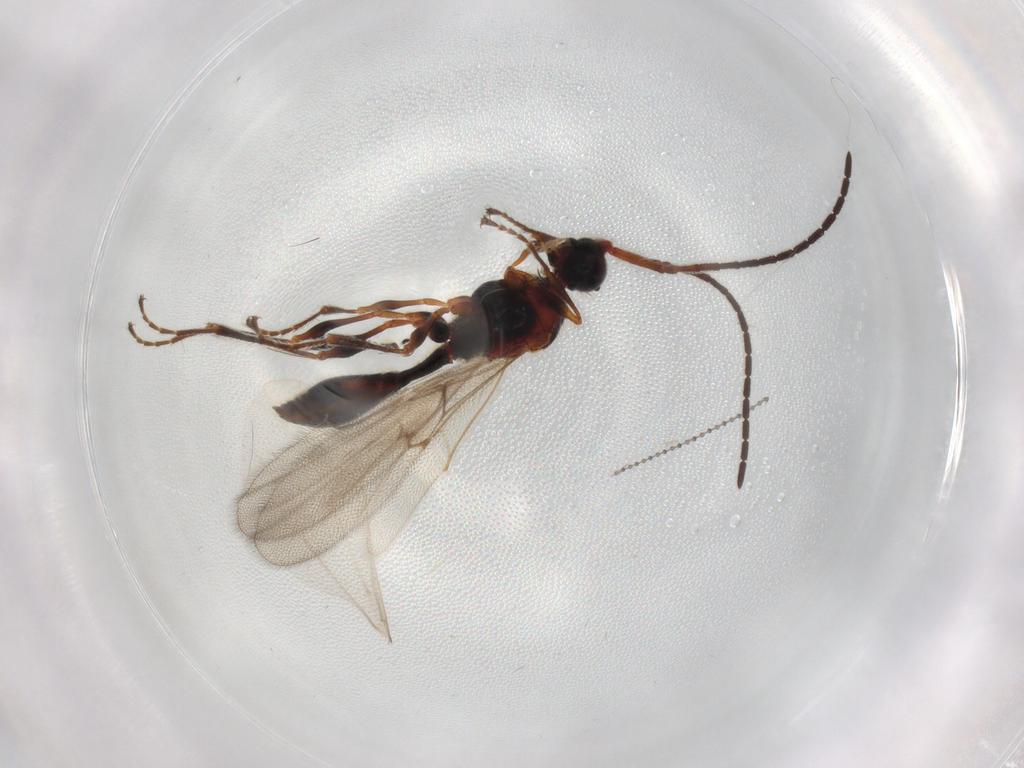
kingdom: Animalia
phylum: Arthropoda
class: Insecta
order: Hymenoptera
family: Diapriidae
